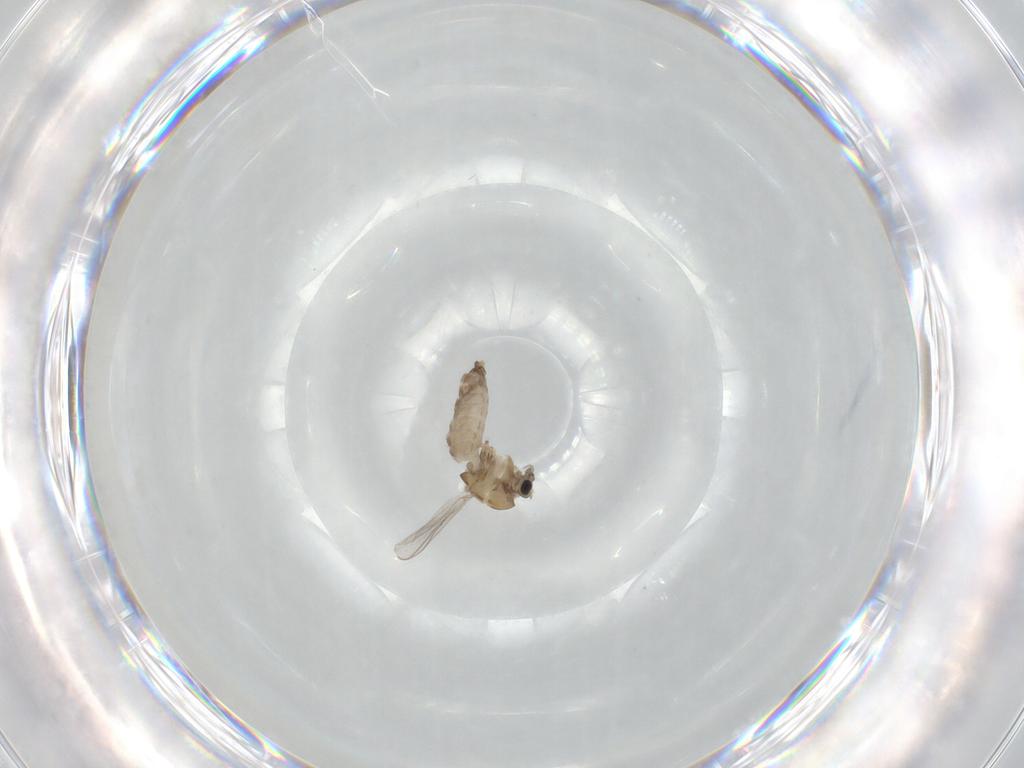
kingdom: Animalia
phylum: Arthropoda
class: Insecta
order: Diptera
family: Chironomidae
